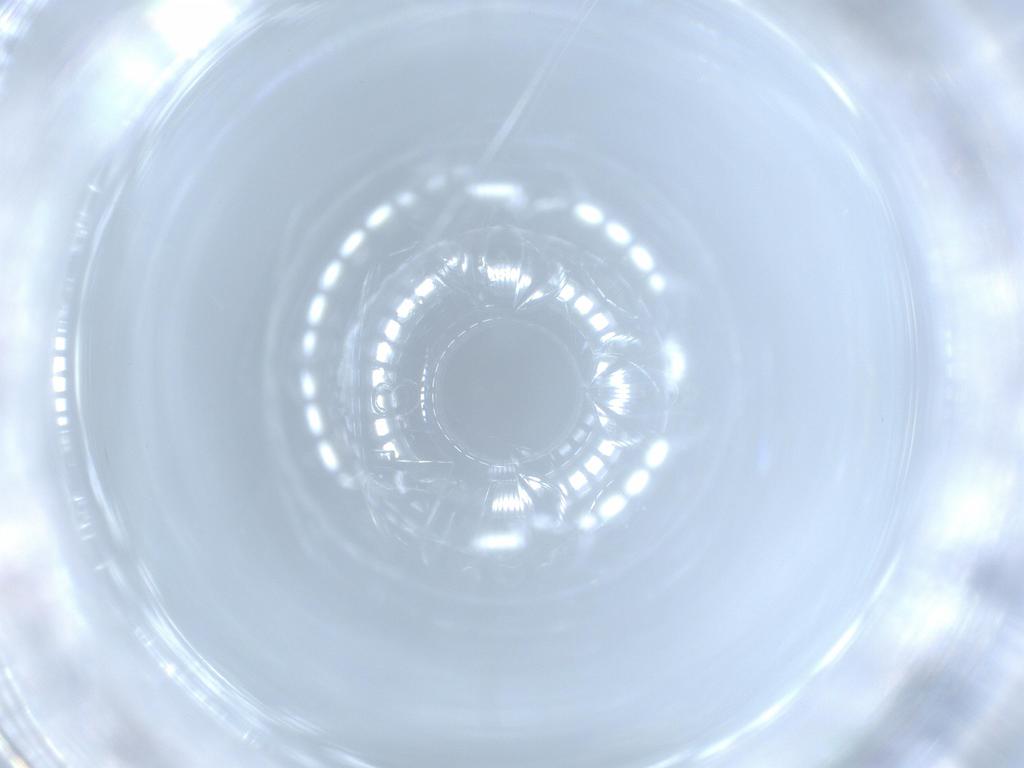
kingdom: Animalia
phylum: Arthropoda
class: Insecta
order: Diptera
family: Cecidomyiidae
